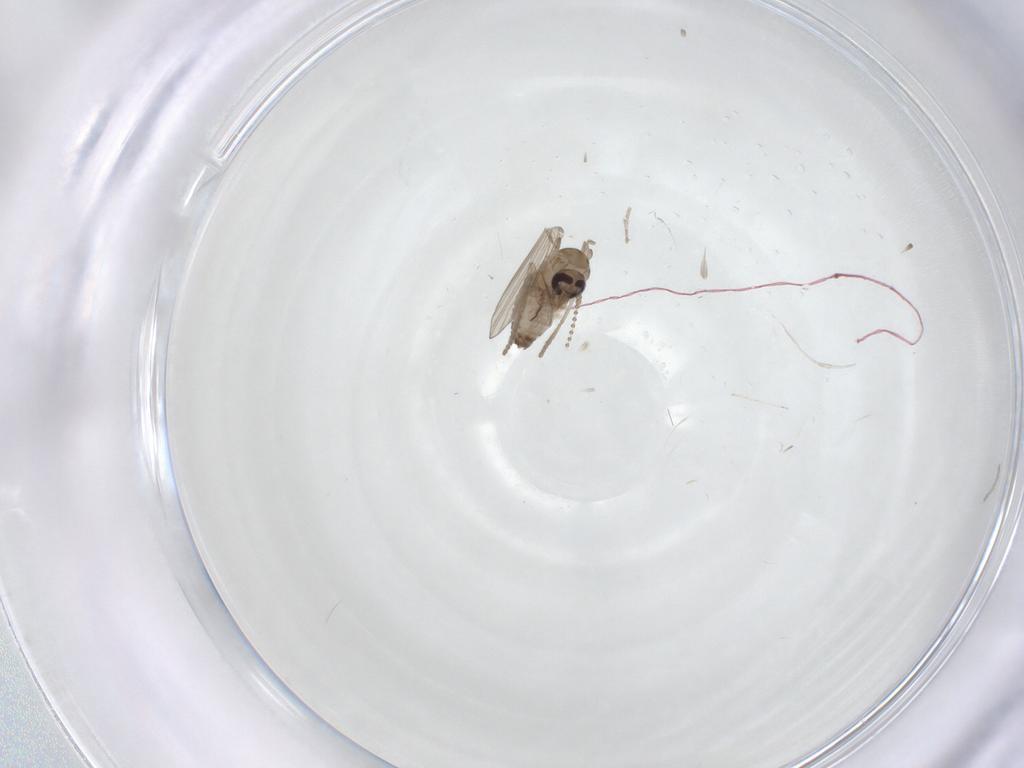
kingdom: Animalia
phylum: Arthropoda
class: Insecta
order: Diptera
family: Psychodidae
